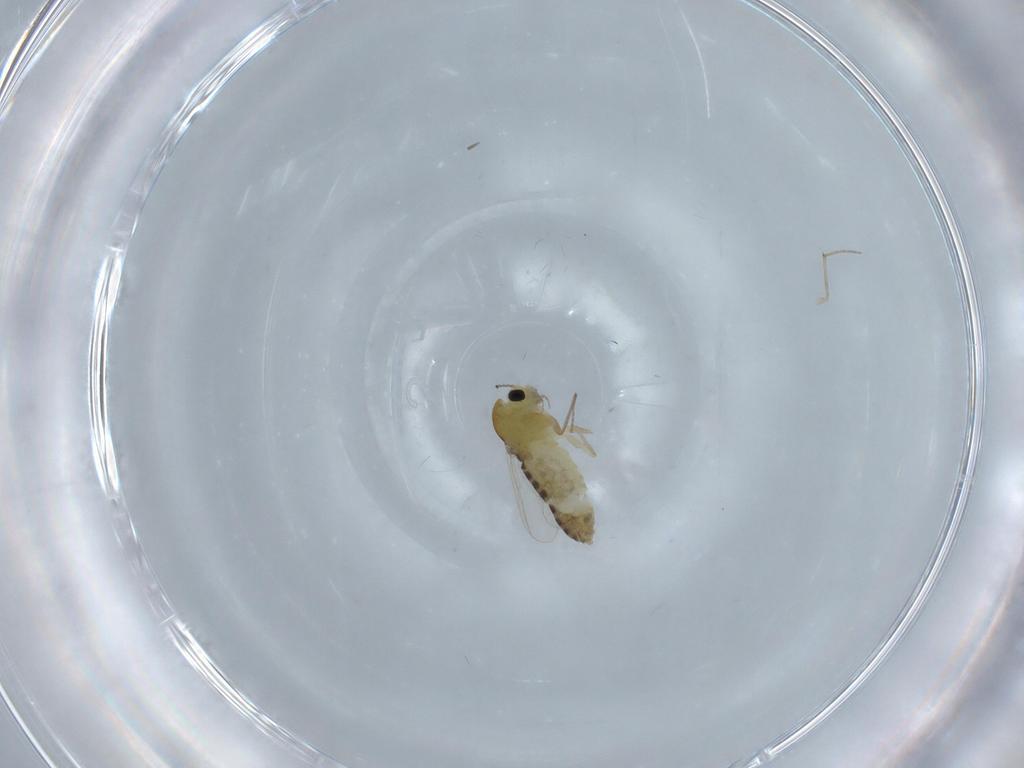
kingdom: Animalia
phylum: Arthropoda
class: Insecta
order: Diptera
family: Chironomidae
